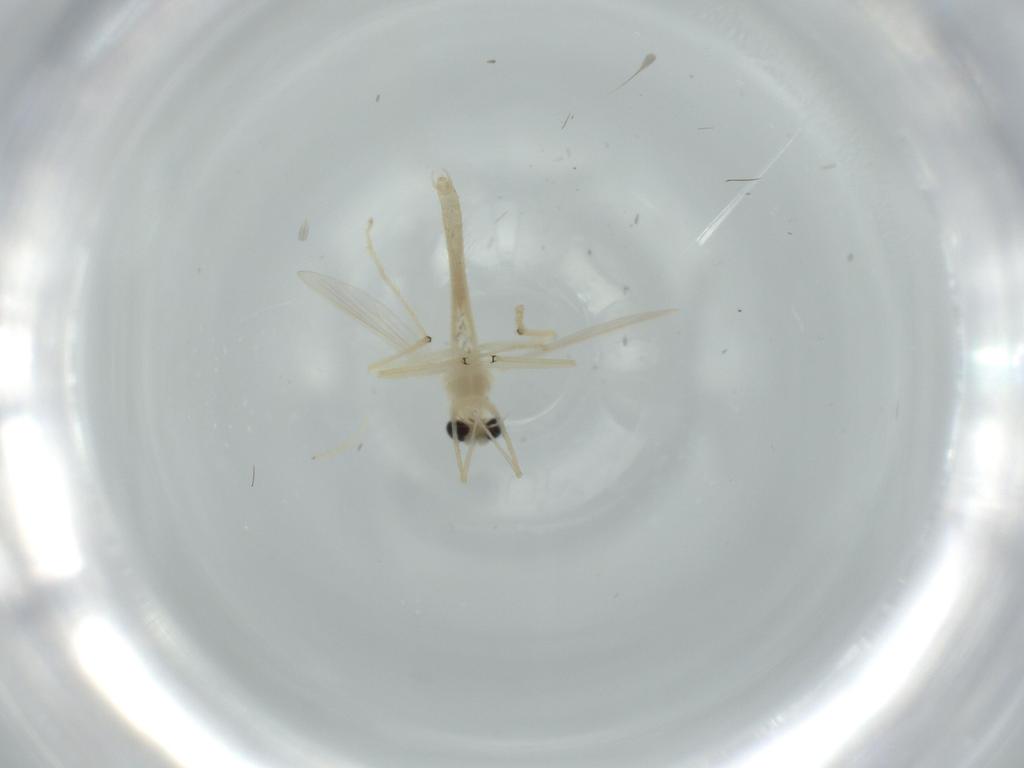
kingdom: Animalia
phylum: Arthropoda
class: Insecta
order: Diptera
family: Chironomidae
